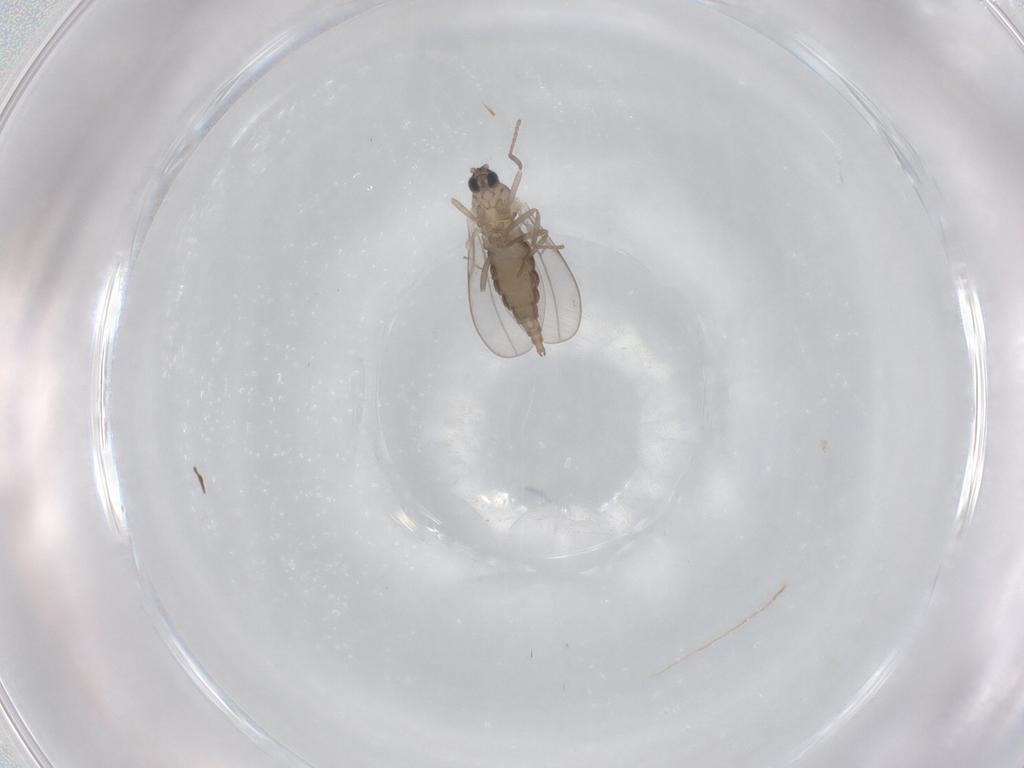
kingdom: Animalia
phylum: Arthropoda
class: Insecta
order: Diptera
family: Cecidomyiidae
